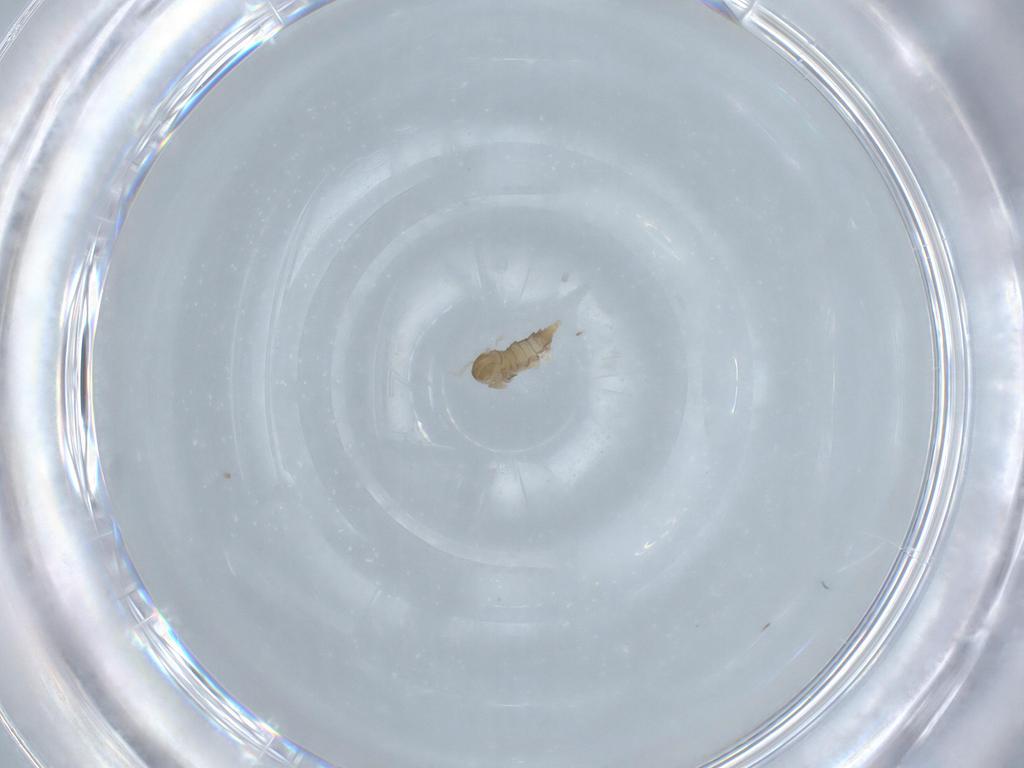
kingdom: Animalia
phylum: Arthropoda
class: Insecta
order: Diptera
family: Cecidomyiidae
